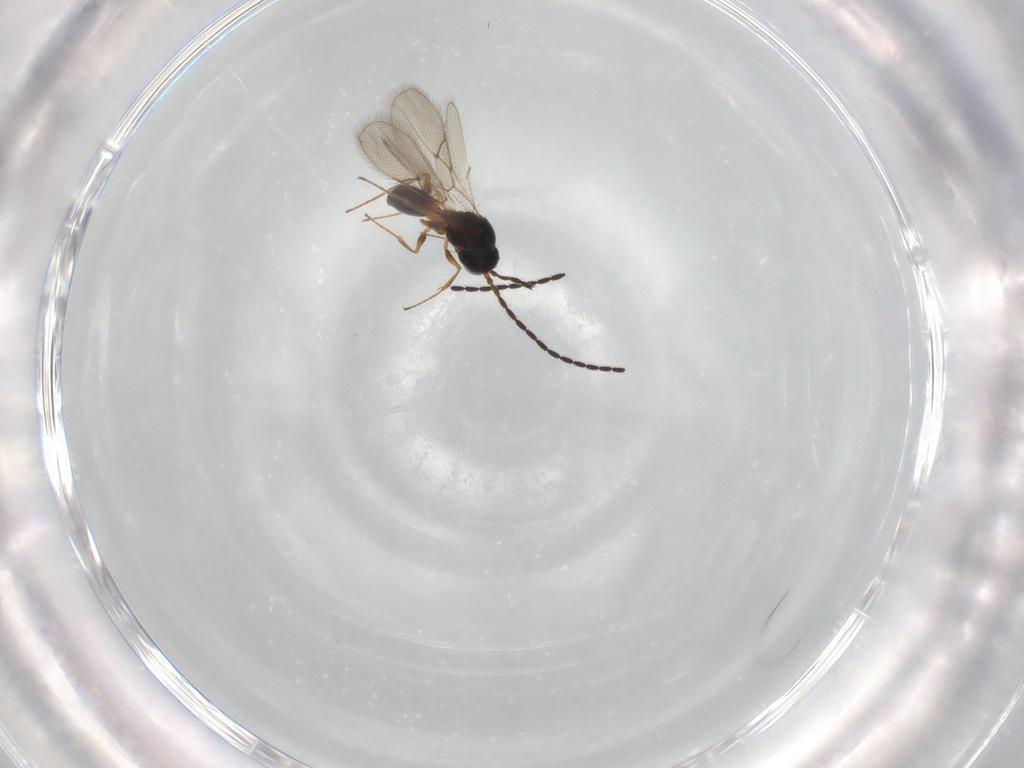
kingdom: Animalia
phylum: Arthropoda
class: Insecta
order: Hymenoptera
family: Figitidae
